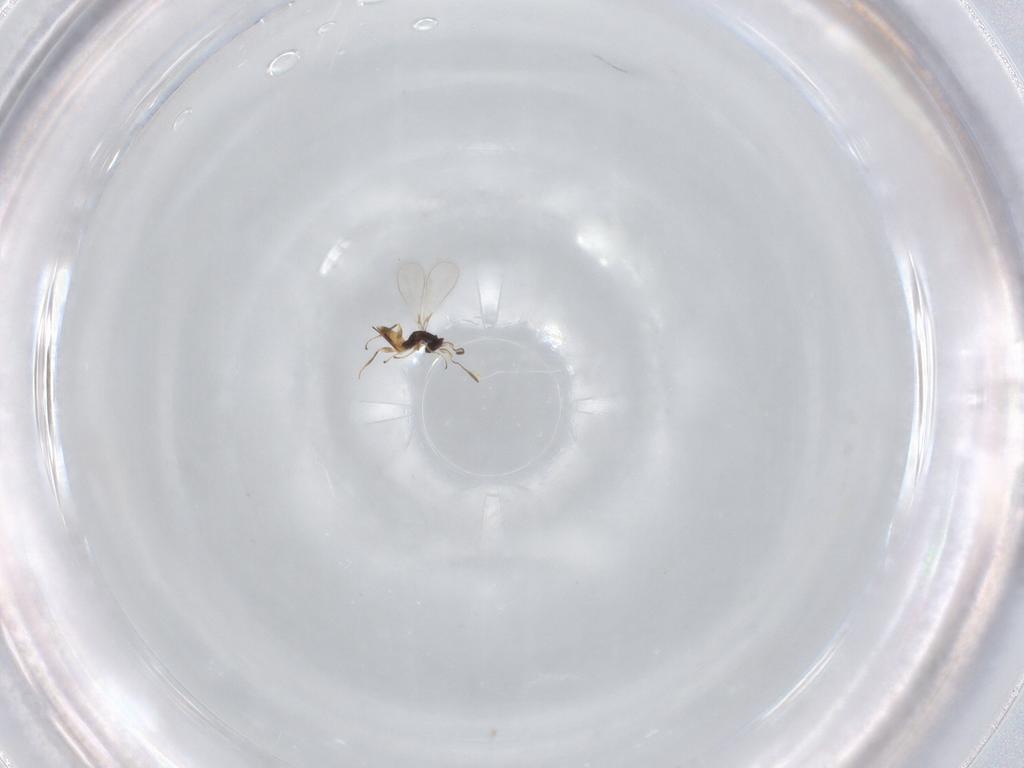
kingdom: Animalia
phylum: Arthropoda
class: Insecta
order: Hymenoptera
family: Mymaridae
